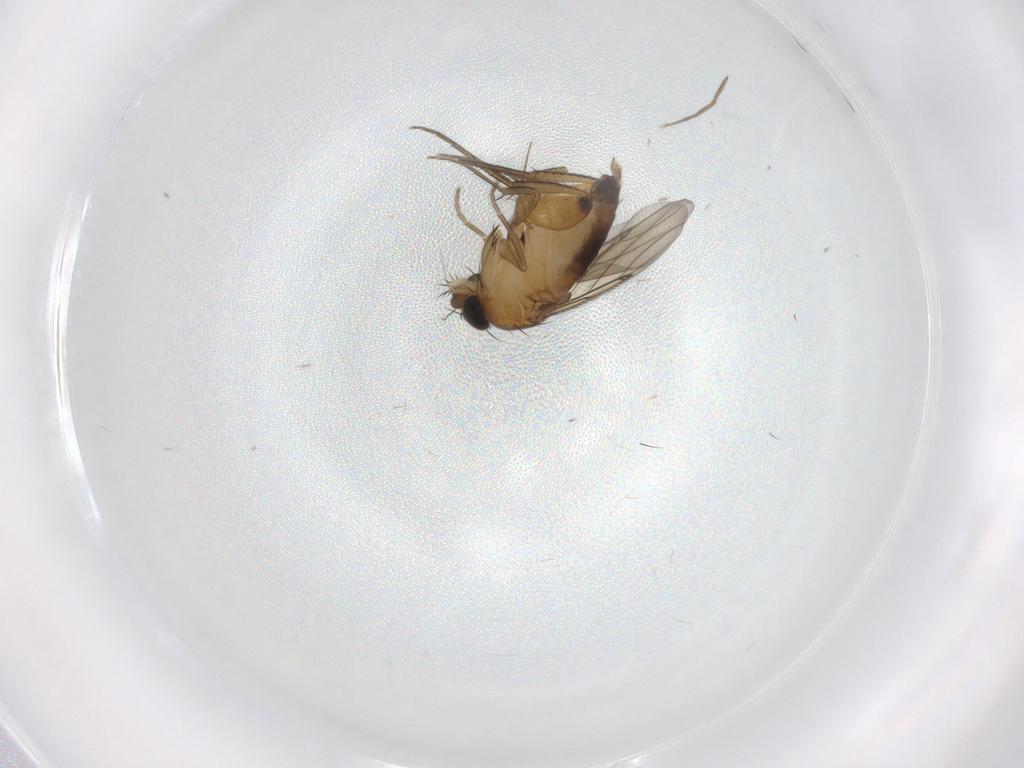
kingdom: Animalia
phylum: Arthropoda
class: Insecta
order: Diptera
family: Phoridae
